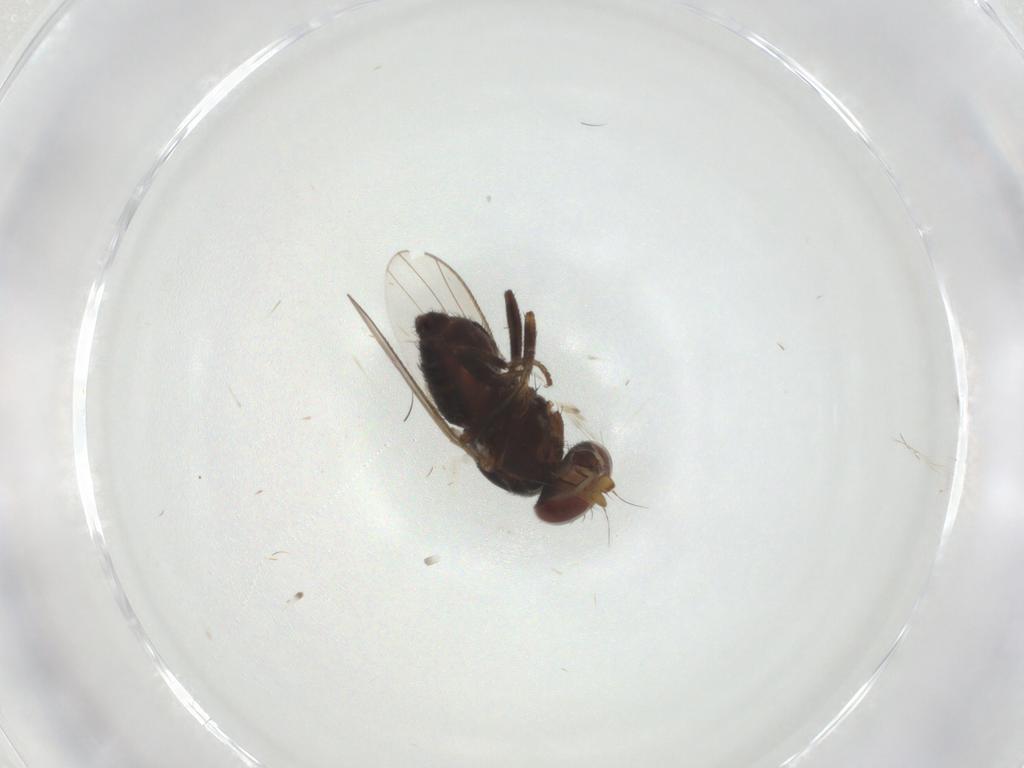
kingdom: Animalia
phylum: Arthropoda
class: Insecta
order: Diptera
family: Heleomyzidae
